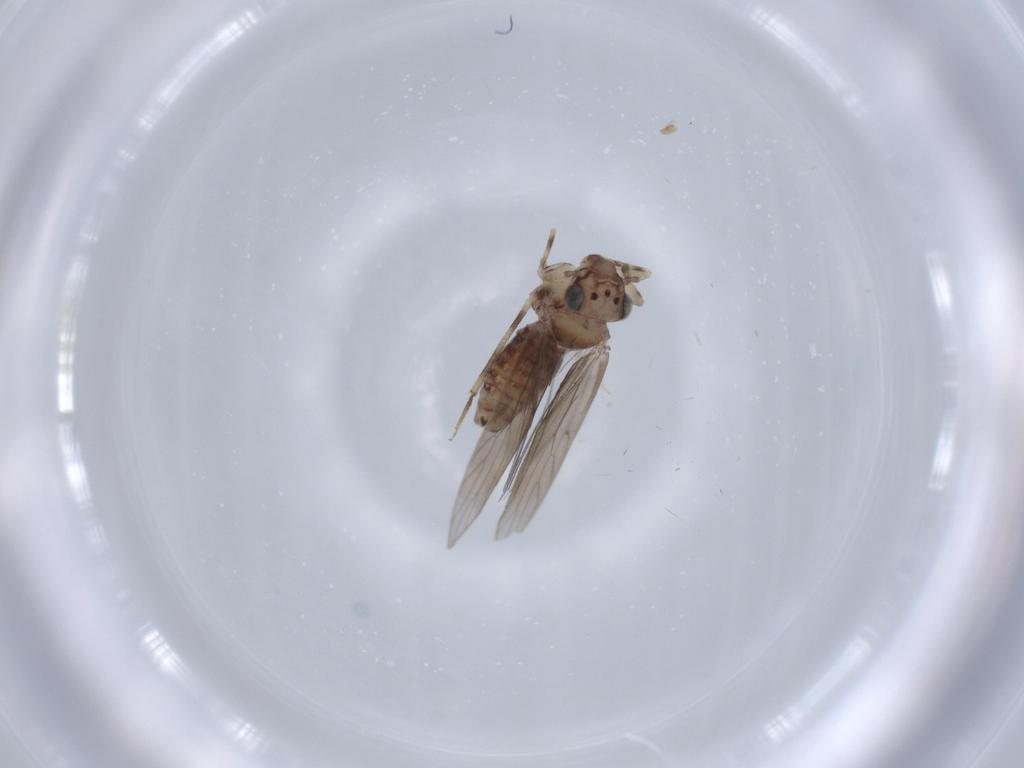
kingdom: Animalia
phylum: Arthropoda
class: Insecta
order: Psocodea
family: Lepidopsocidae
